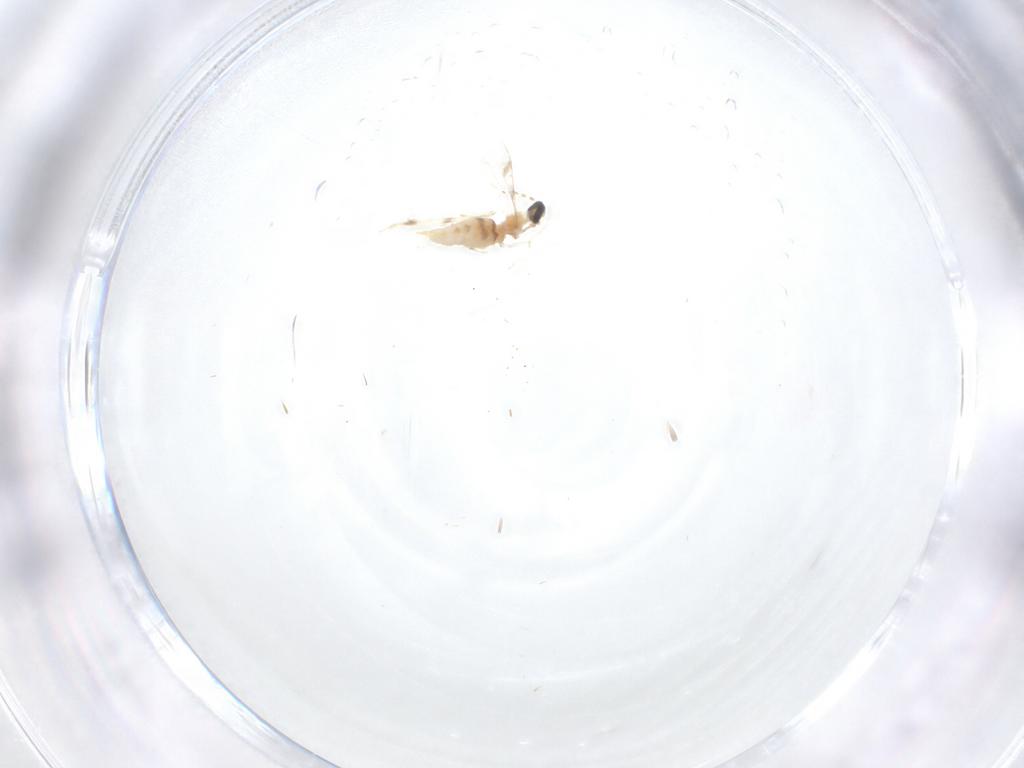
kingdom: Animalia
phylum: Arthropoda
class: Insecta
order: Diptera
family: Cecidomyiidae
